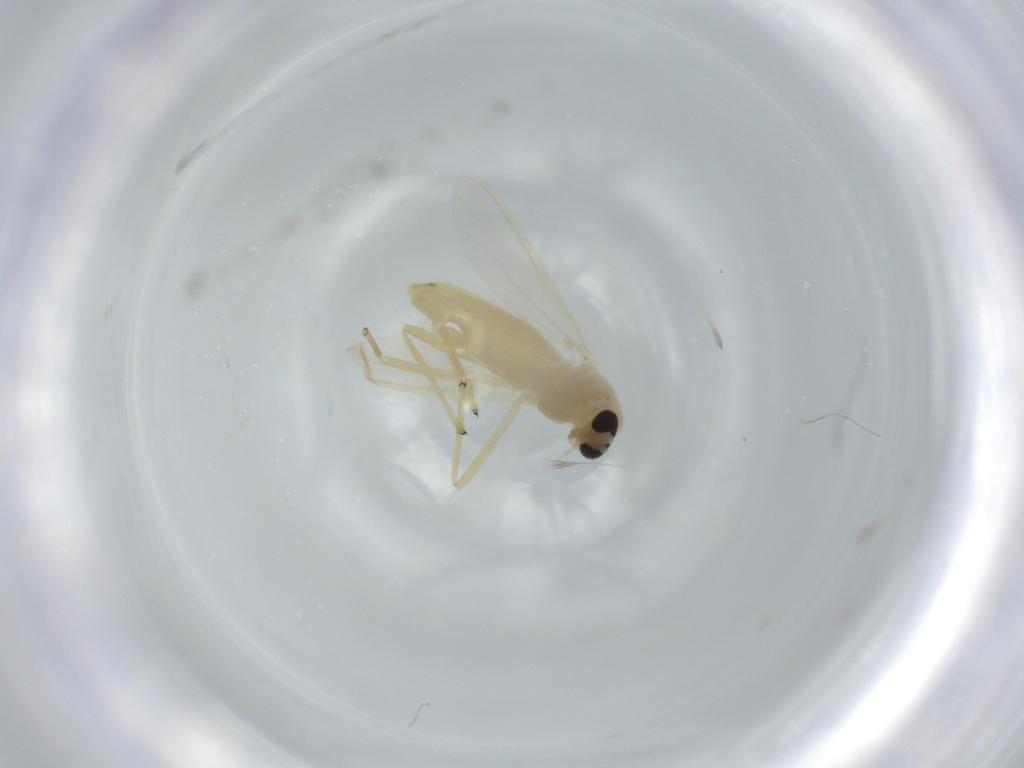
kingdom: Animalia
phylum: Arthropoda
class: Insecta
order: Diptera
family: Chironomidae
